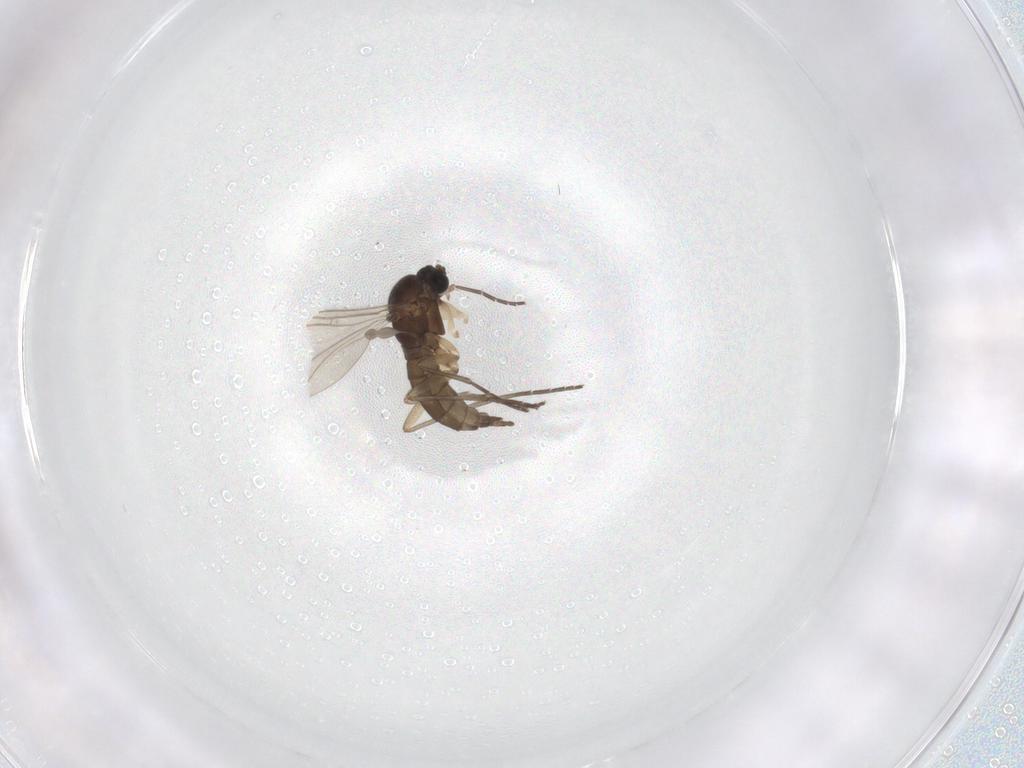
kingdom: Animalia
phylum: Arthropoda
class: Insecta
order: Diptera
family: Sciaridae
